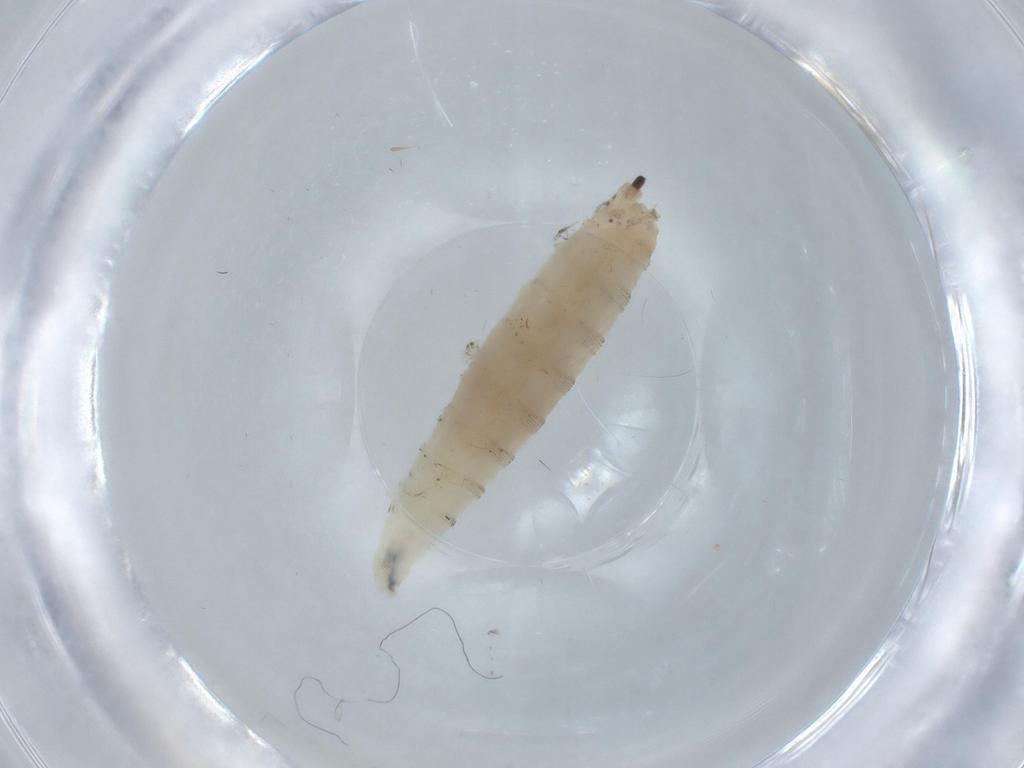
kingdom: Animalia
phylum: Arthropoda
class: Insecta
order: Diptera
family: Drosophilidae
